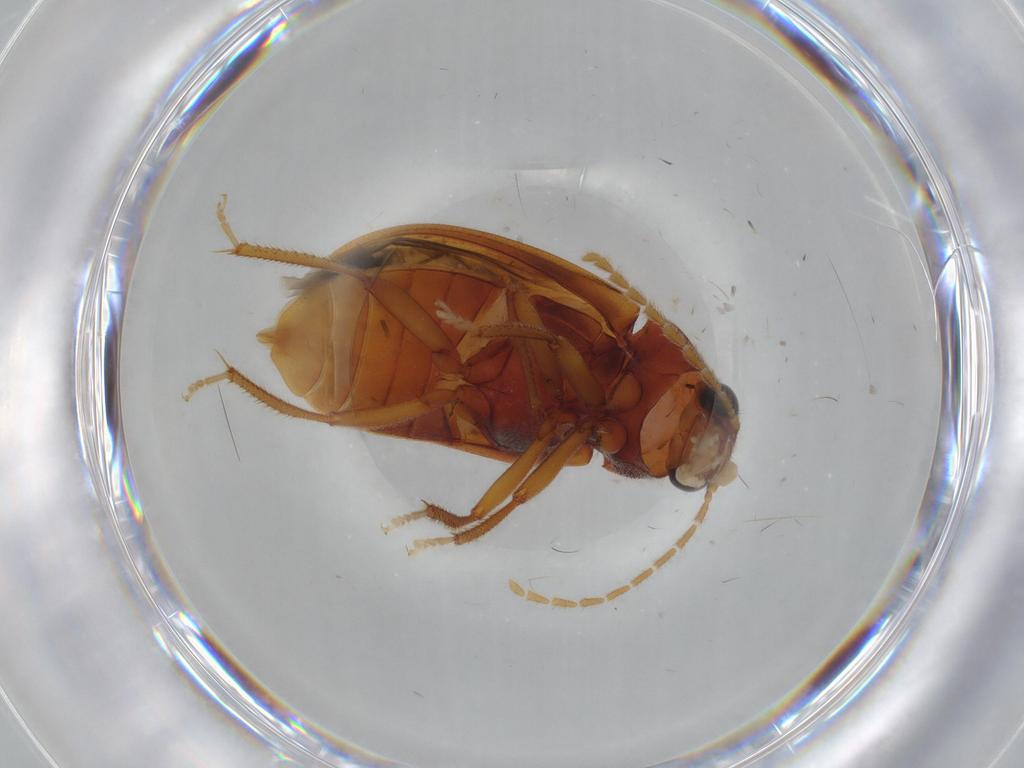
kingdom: Animalia
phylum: Arthropoda
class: Insecta
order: Coleoptera
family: Ptilodactylidae
